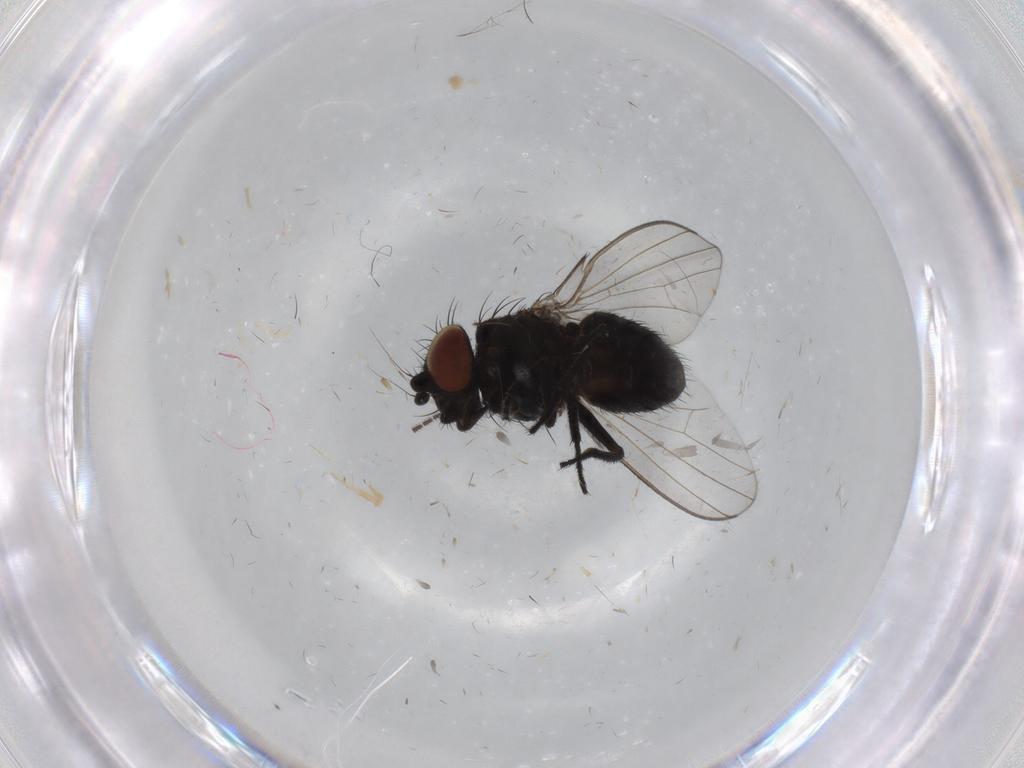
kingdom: Animalia
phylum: Arthropoda
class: Insecta
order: Diptera
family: Milichiidae
